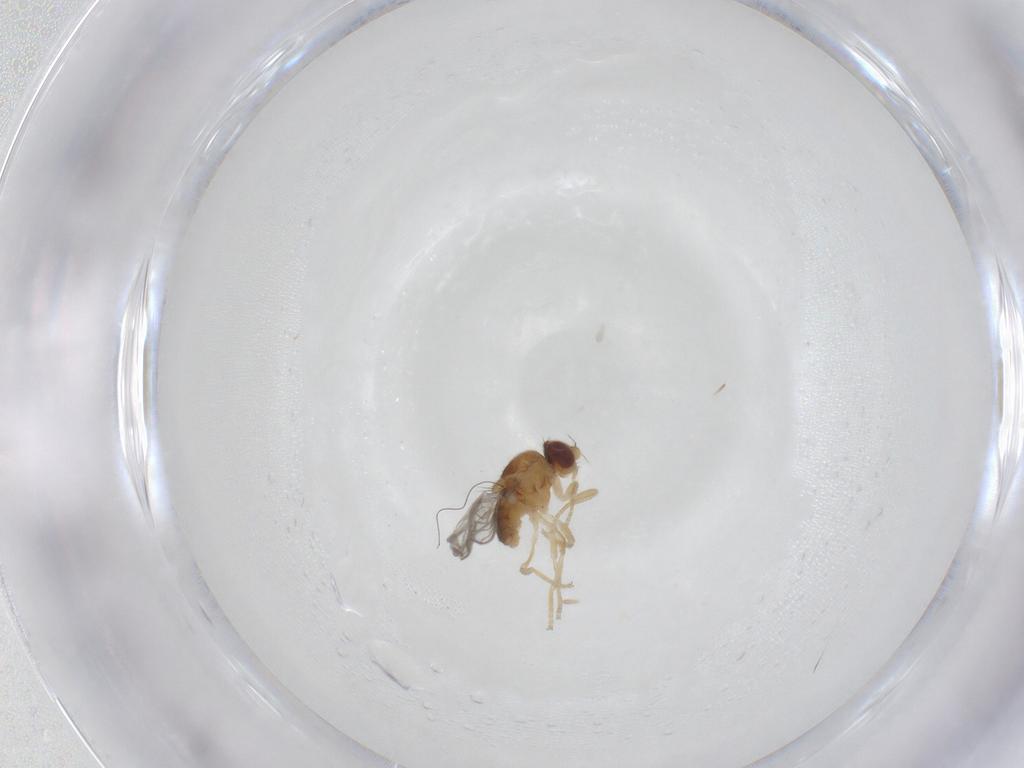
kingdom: Animalia
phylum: Arthropoda
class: Insecta
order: Diptera
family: Chloropidae
